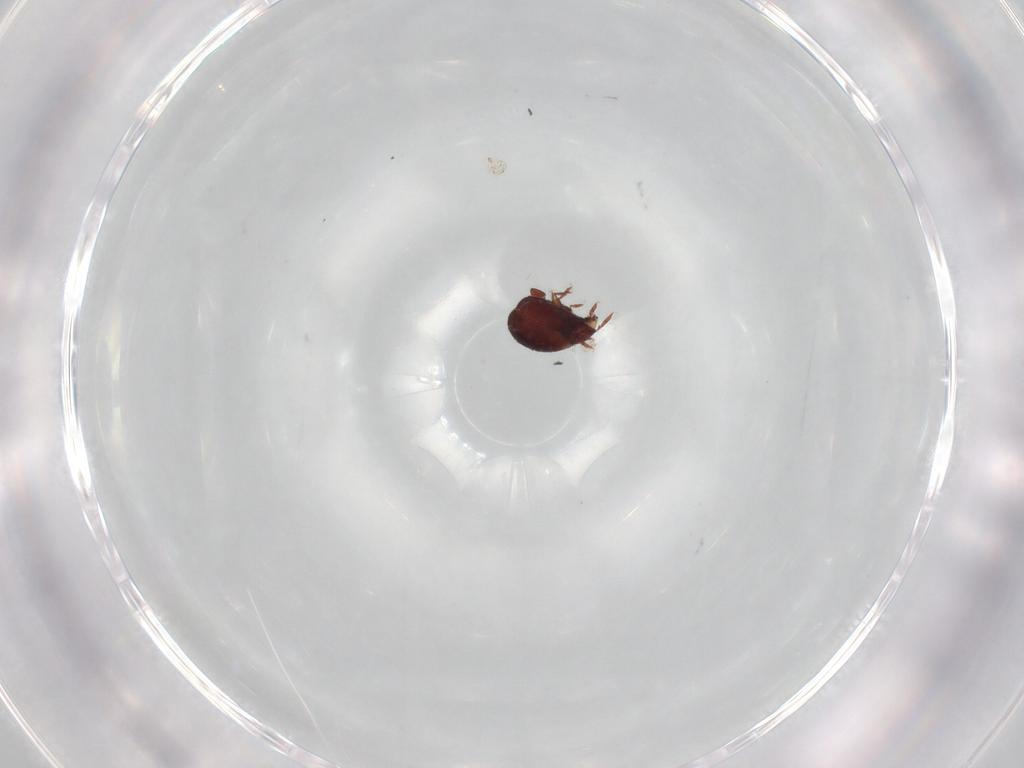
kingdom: Animalia
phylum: Arthropoda
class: Arachnida
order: Sarcoptiformes
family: Humerobatidae
